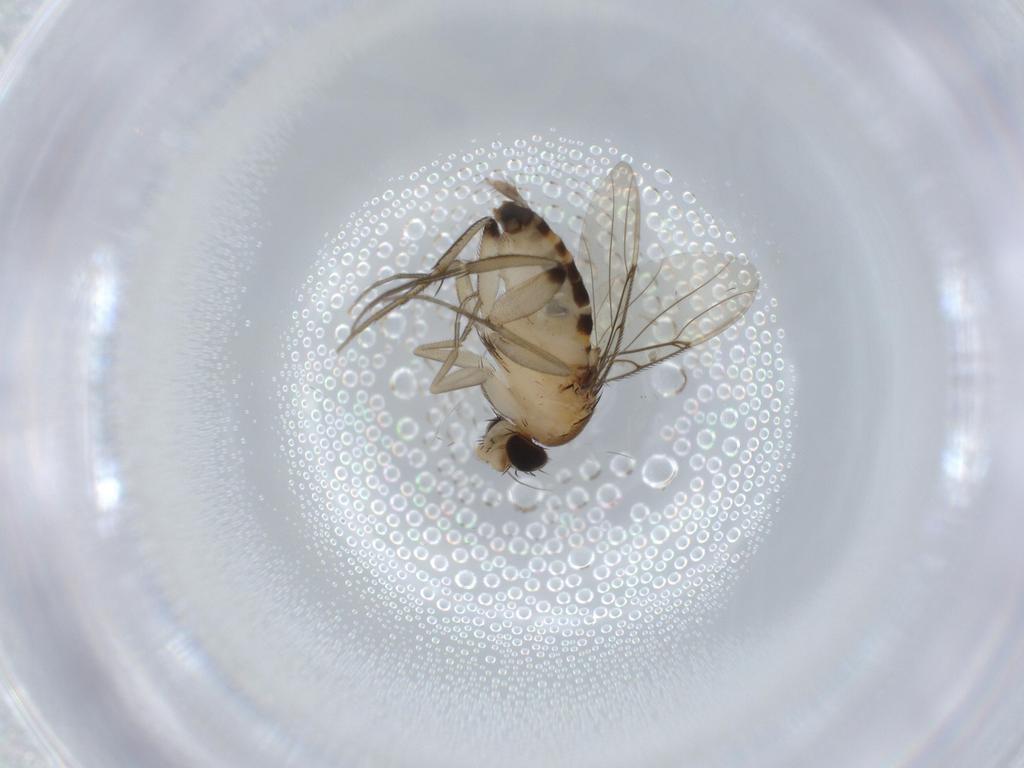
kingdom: Animalia
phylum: Arthropoda
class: Insecta
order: Diptera
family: Phoridae
